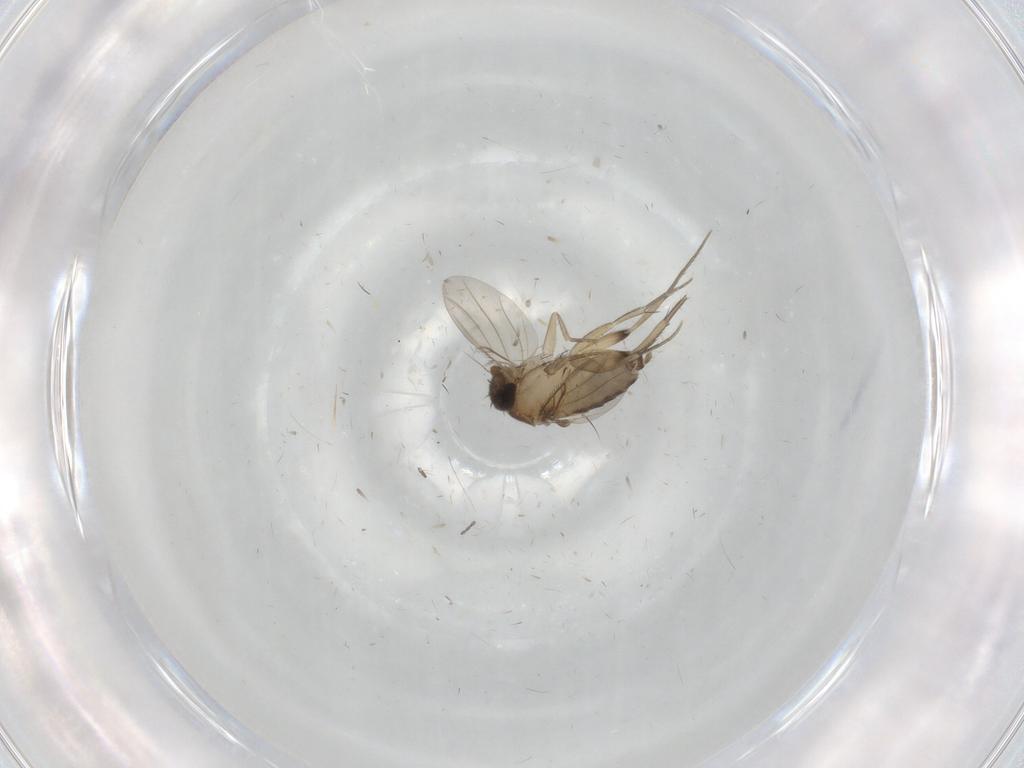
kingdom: Animalia
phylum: Arthropoda
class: Insecta
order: Diptera
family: Phoridae
